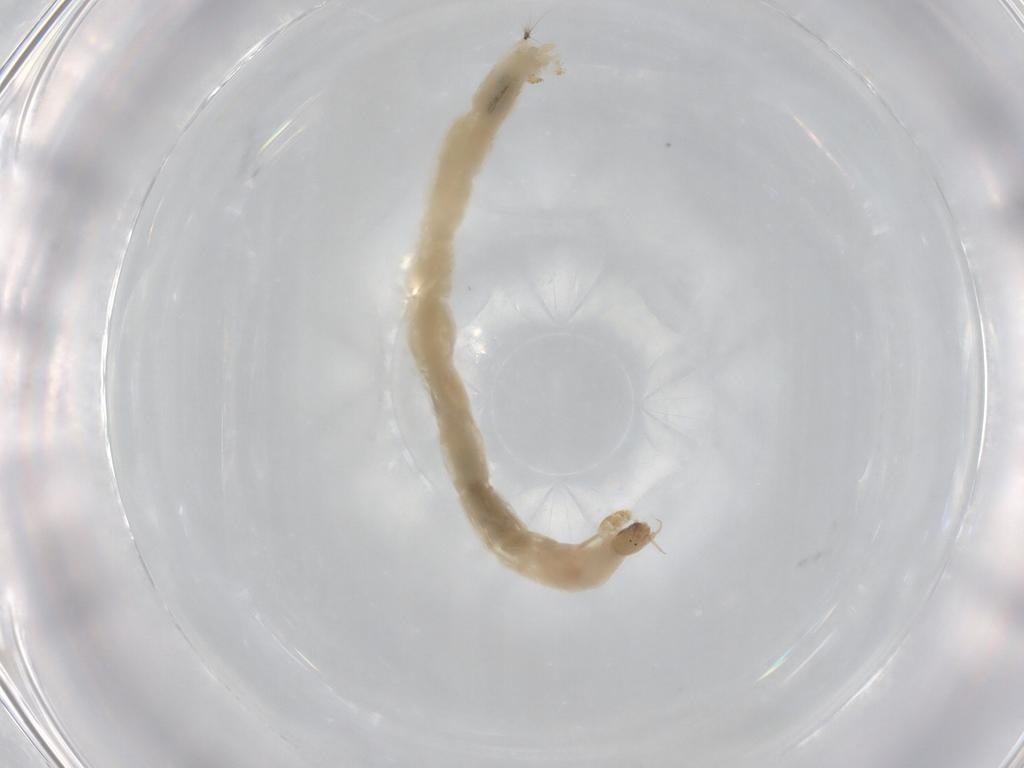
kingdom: Animalia
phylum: Arthropoda
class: Insecta
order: Diptera
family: Chironomidae
